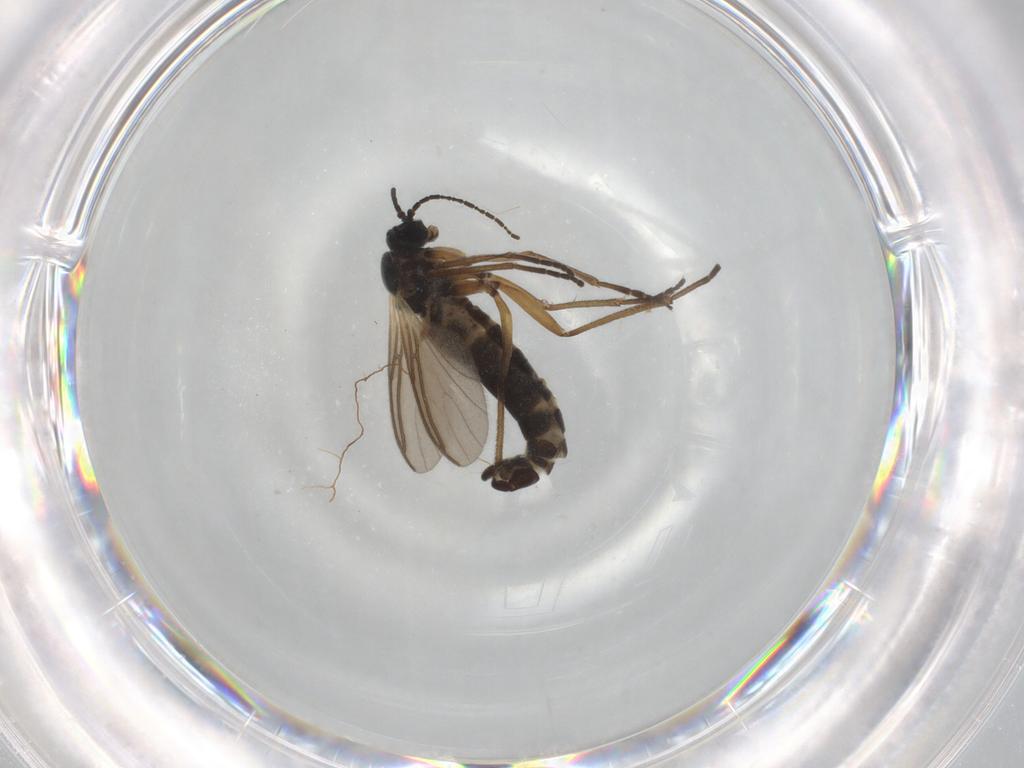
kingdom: Animalia
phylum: Arthropoda
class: Insecta
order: Diptera
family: Sciaridae
